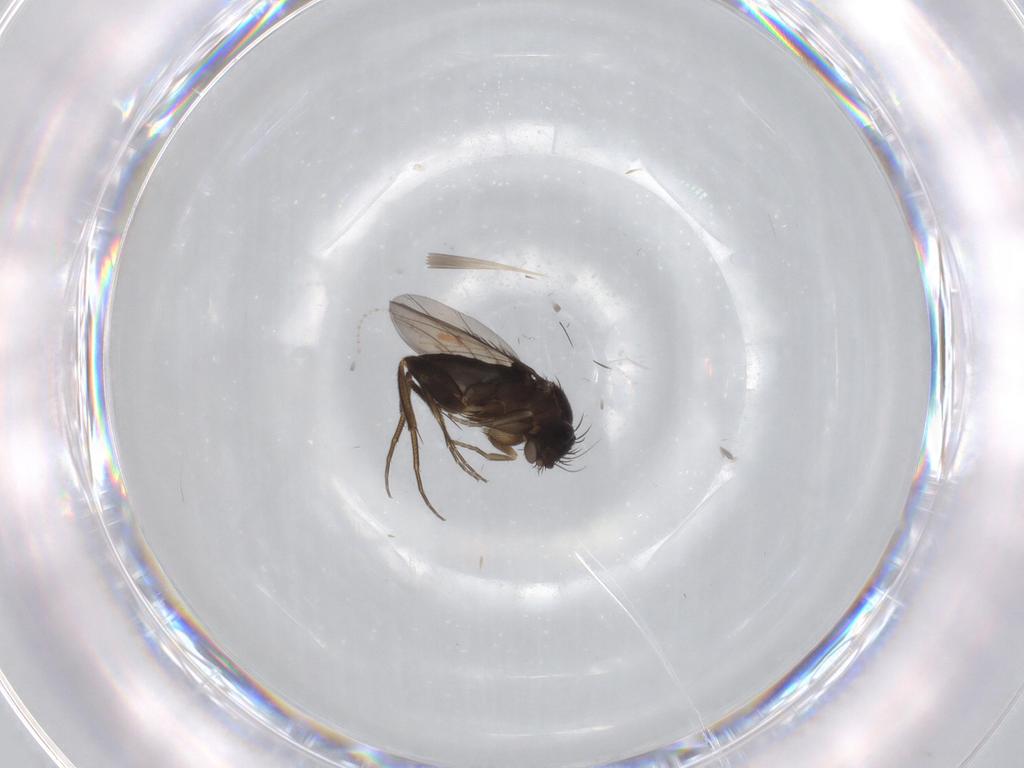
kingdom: Animalia
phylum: Arthropoda
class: Insecta
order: Diptera
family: Phoridae
